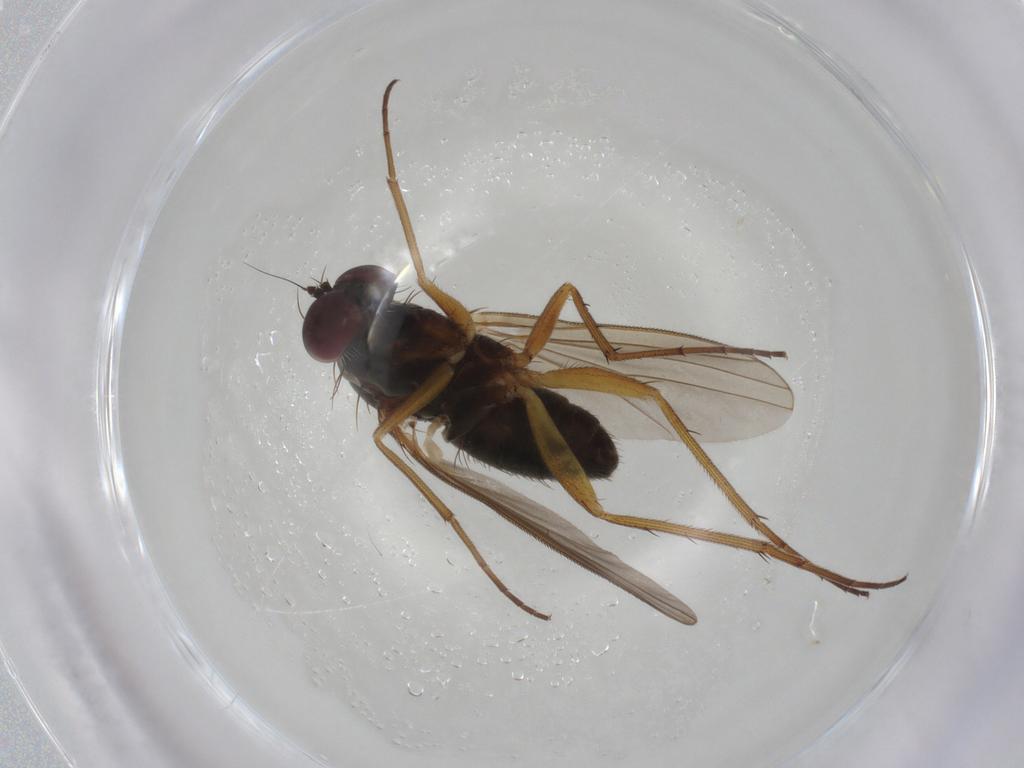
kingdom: Animalia
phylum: Arthropoda
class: Insecta
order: Diptera
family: Dolichopodidae
